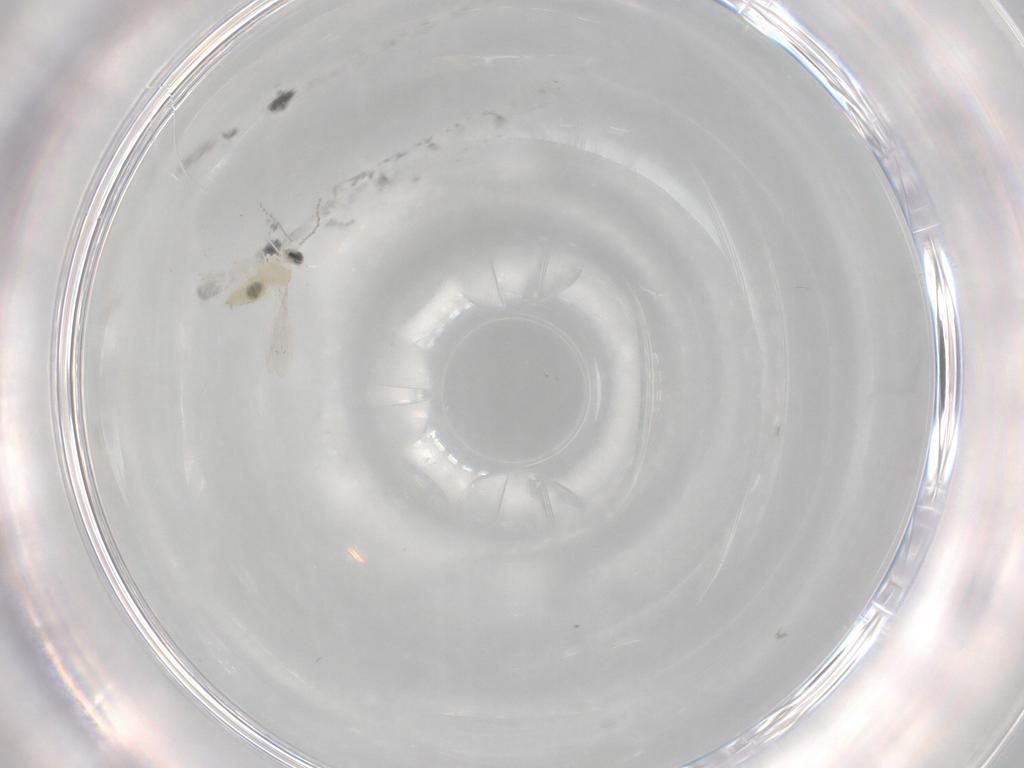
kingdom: Animalia
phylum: Arthropoda
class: Insecta
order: Diptera
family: Cecidomyiidae
